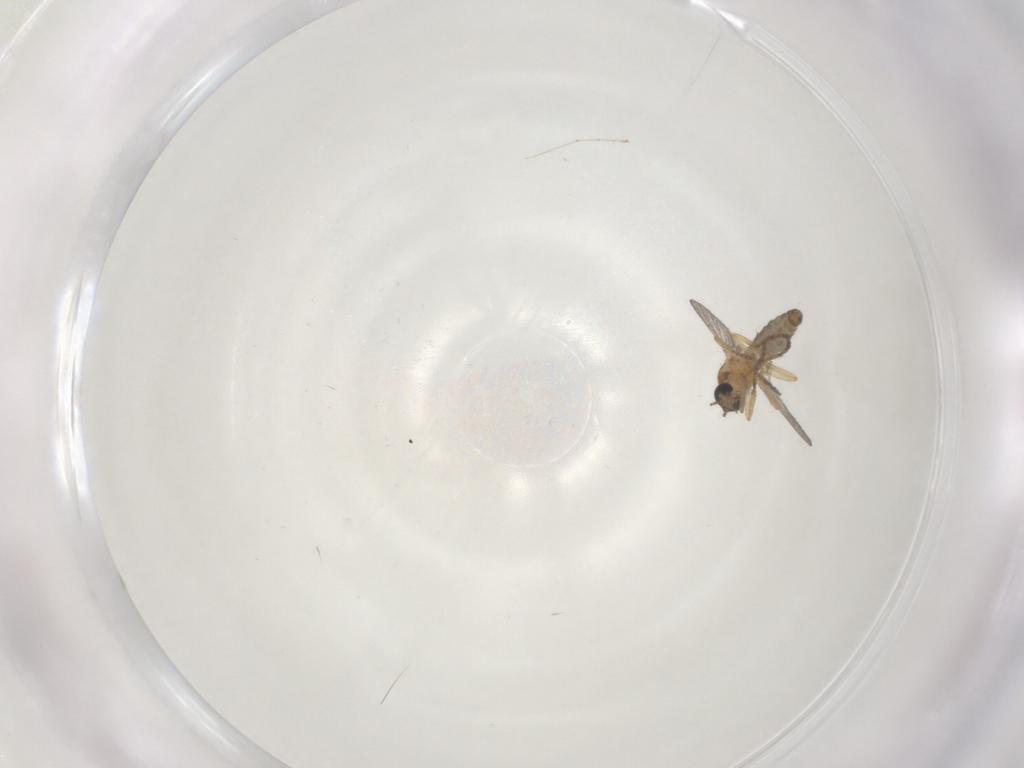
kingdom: Animalia
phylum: Arthropoda
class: Insecta
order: Diptera
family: Ceratopogonidae
